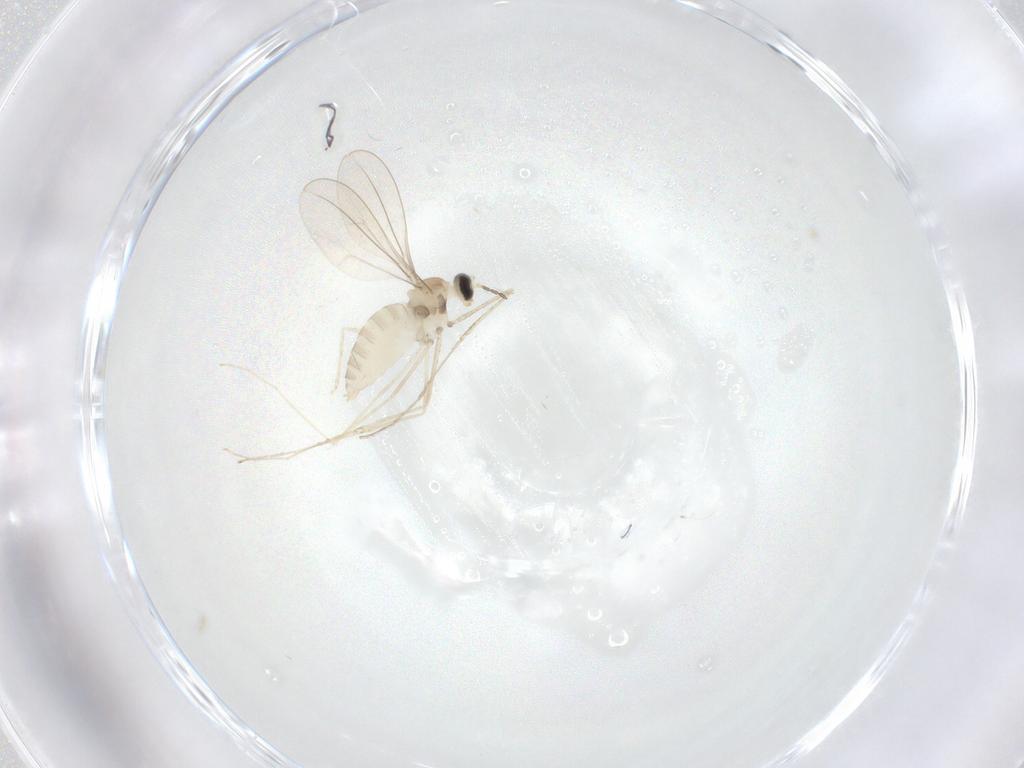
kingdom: Animalia
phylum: Arthropoda
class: Insecta
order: Diptera
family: Cecidomyiidae
